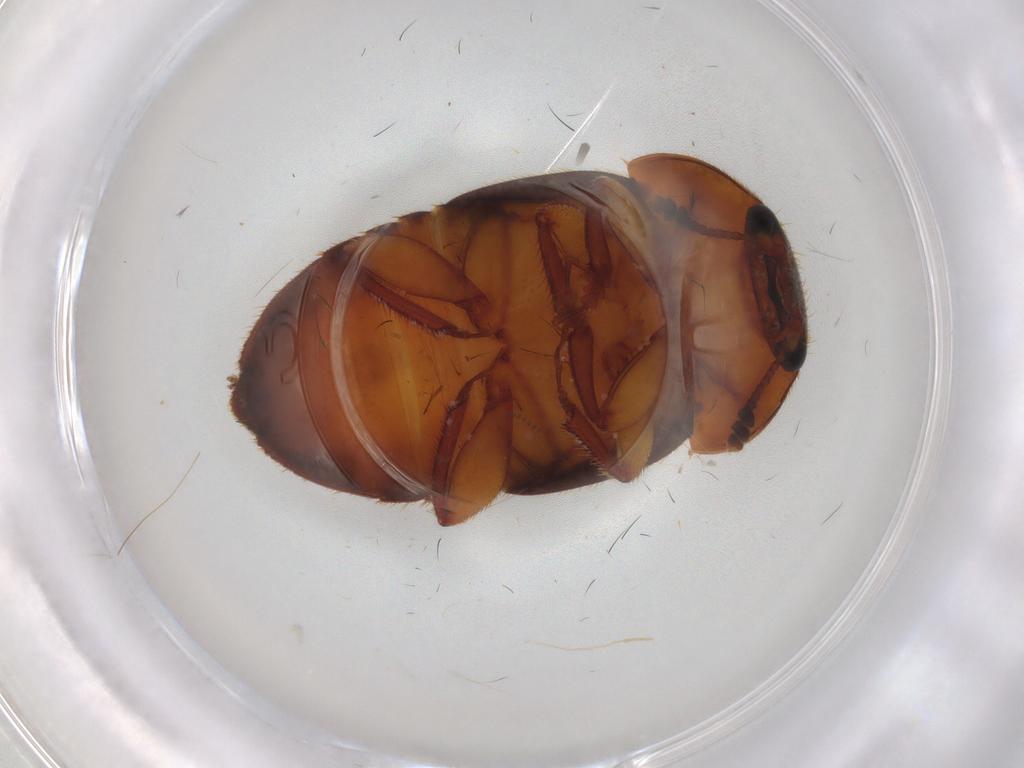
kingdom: Animalia
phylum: Arthropoda
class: Insecta
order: Coleoptera
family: Nitidulidae
